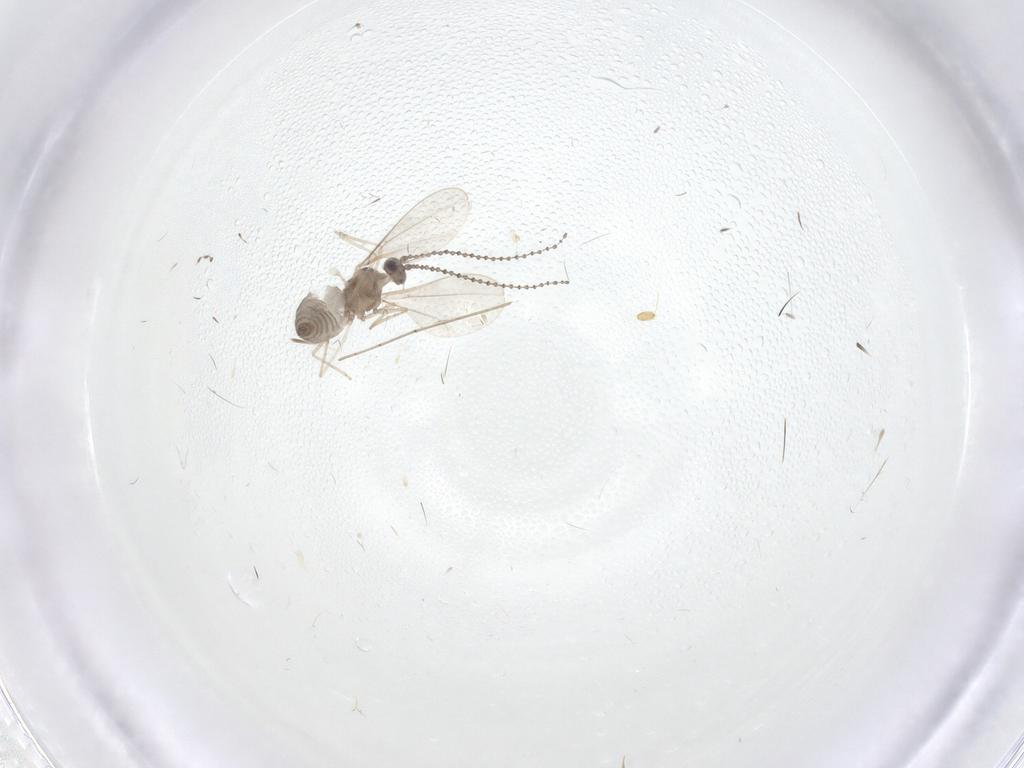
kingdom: Animalia
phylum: Arthropoda
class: Insecta
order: Diptera
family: Cecidomyiidae
